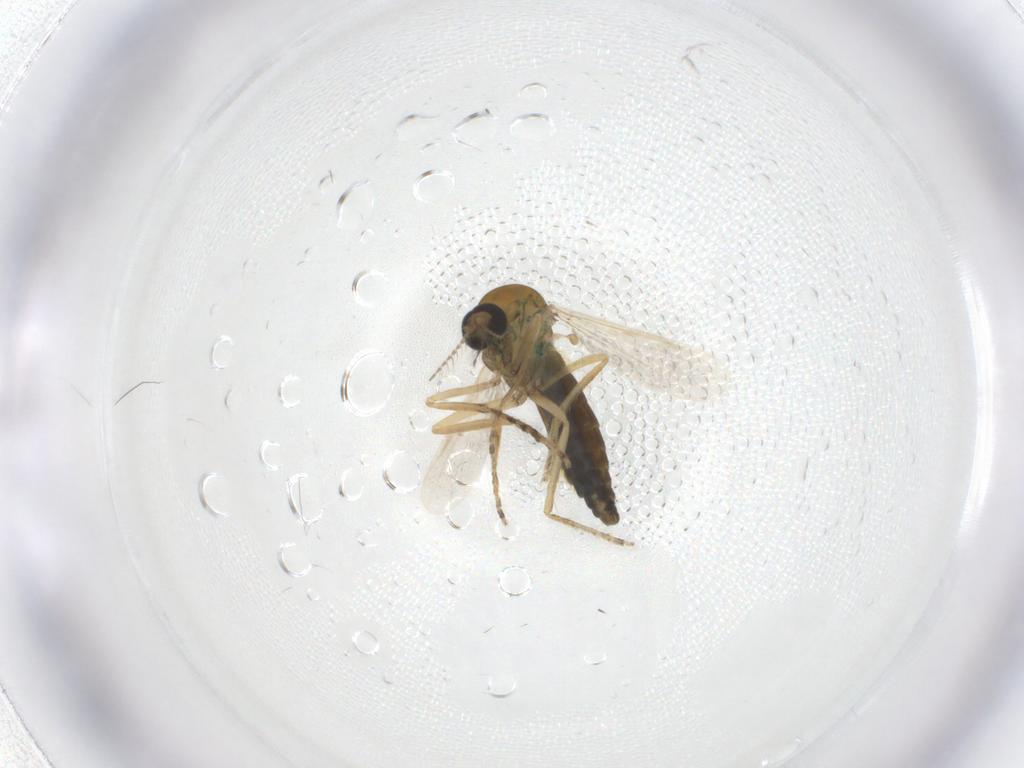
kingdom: Animalia
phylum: Arthropoda
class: Insecta
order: Diptera
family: Ceratopogonidae
